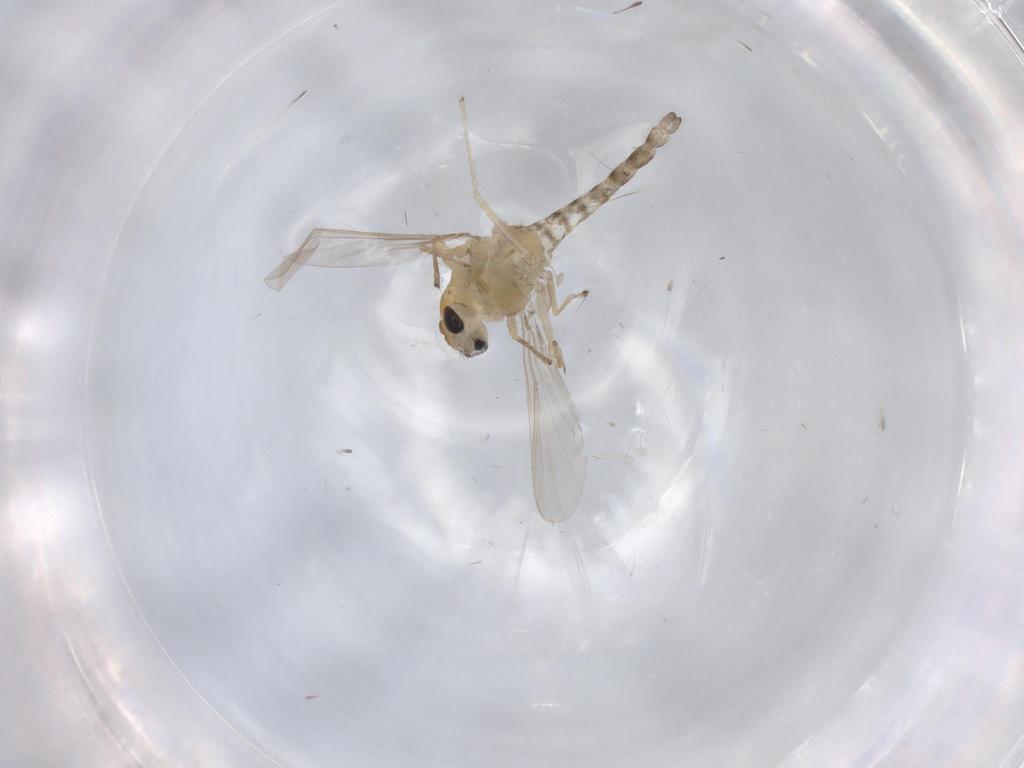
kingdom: Animalia
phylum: Arthropoda
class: Insecta
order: Diptera
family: Chironomidae
